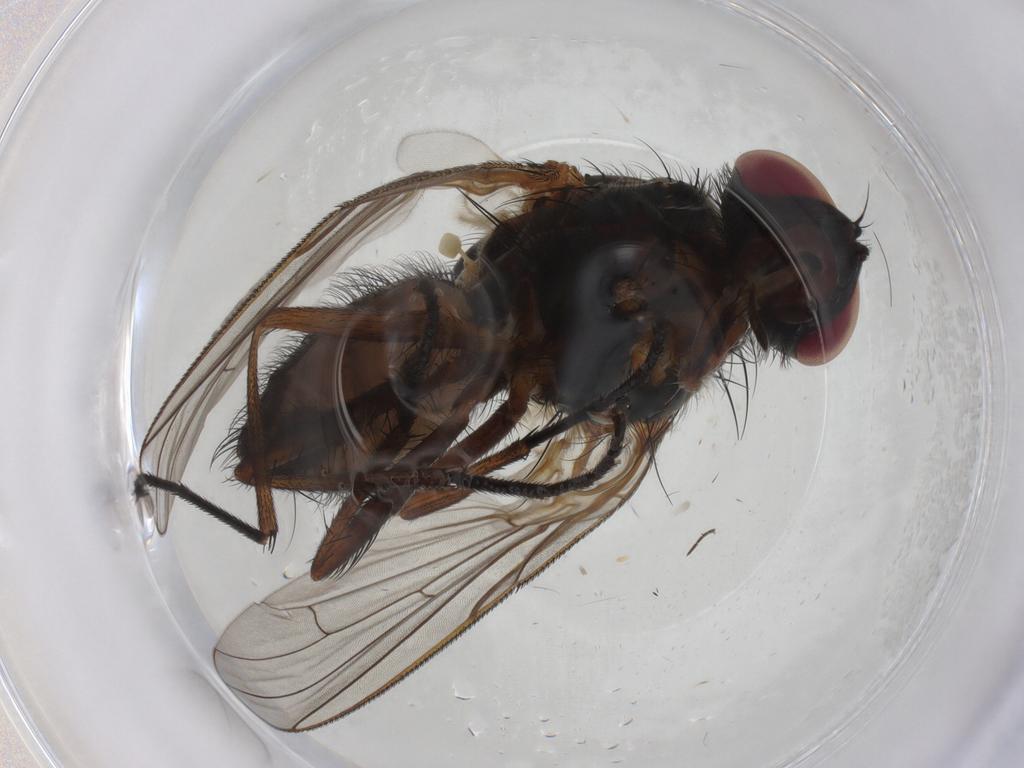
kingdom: Animalia
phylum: Arthropoda
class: Insecta
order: Diptera
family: Anthomyiidae
